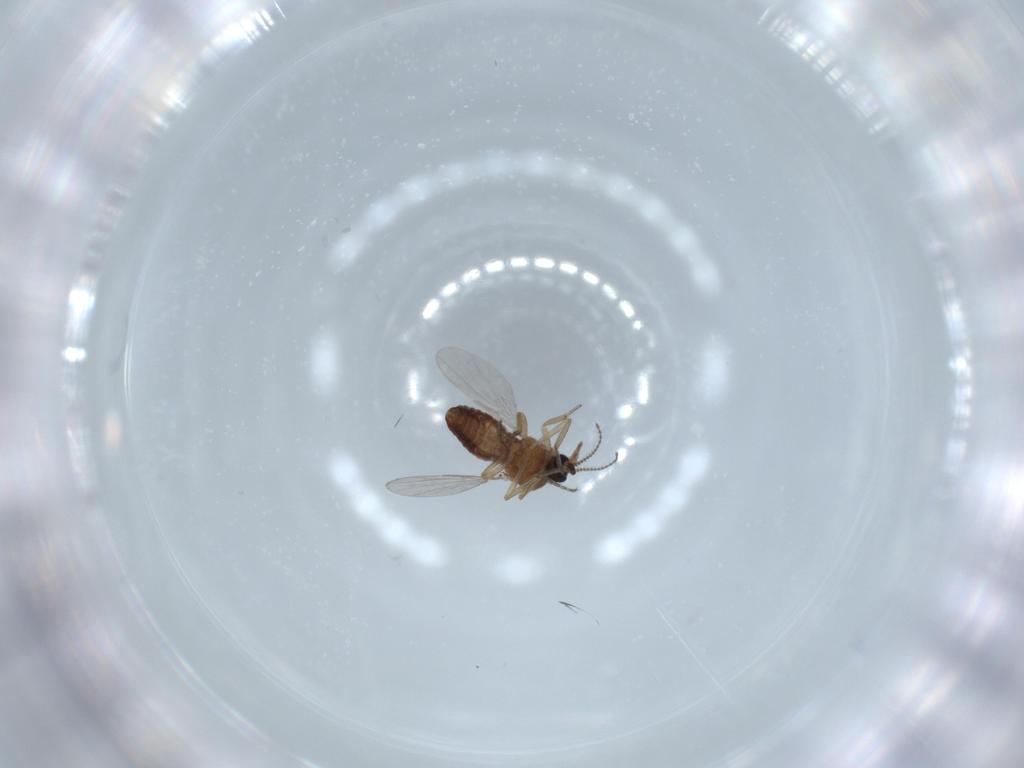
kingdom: Animalia
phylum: Arthropoda
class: Insecta
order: Diptera
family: Ceratopogonidae
